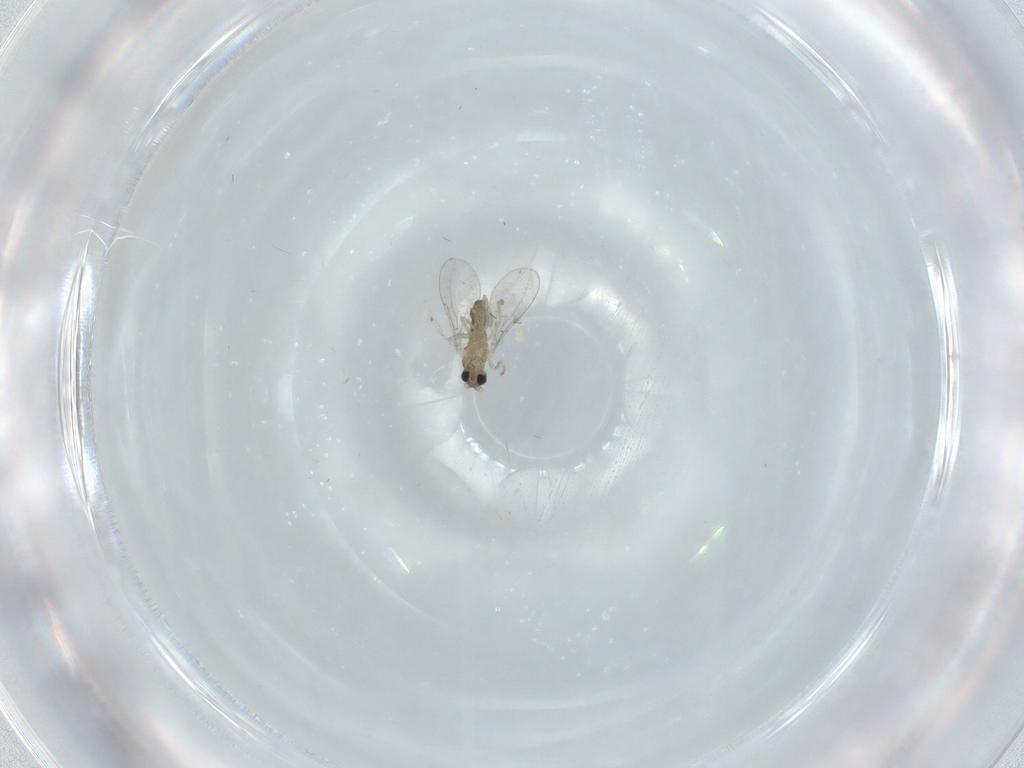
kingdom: Animalia
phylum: Arthropoda
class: Insecta
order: Diptera
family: Cecidomyiidae
